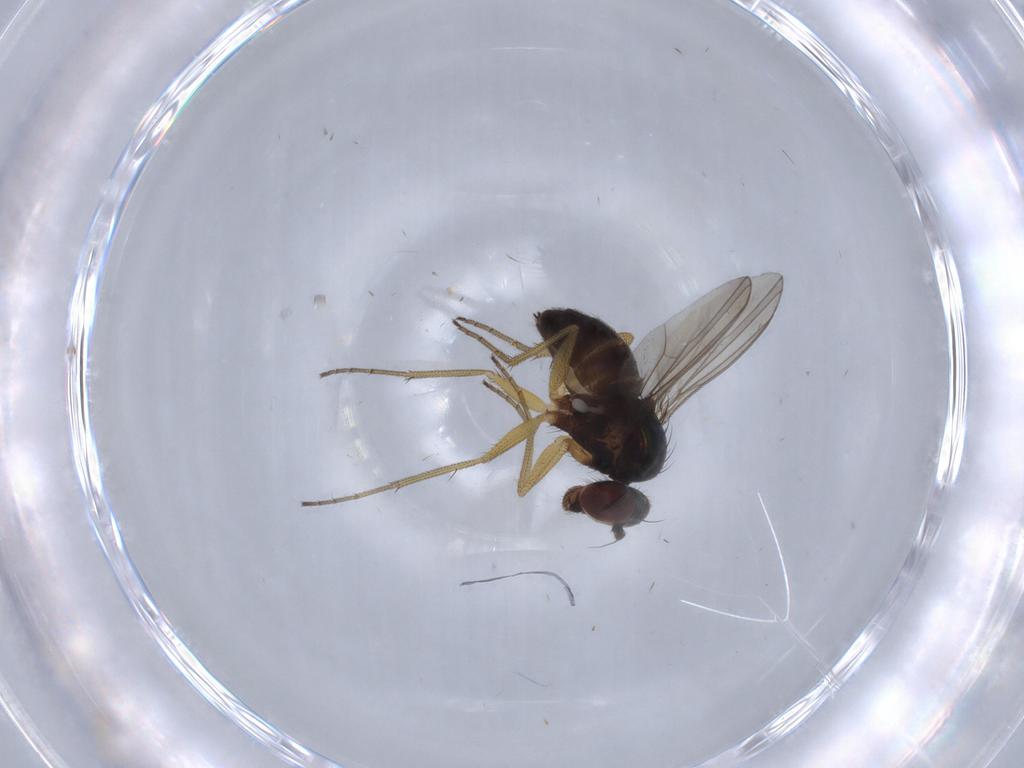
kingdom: Animalia
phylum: Arthropoda
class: Insecta
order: Diptera
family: Dolichopodidae
